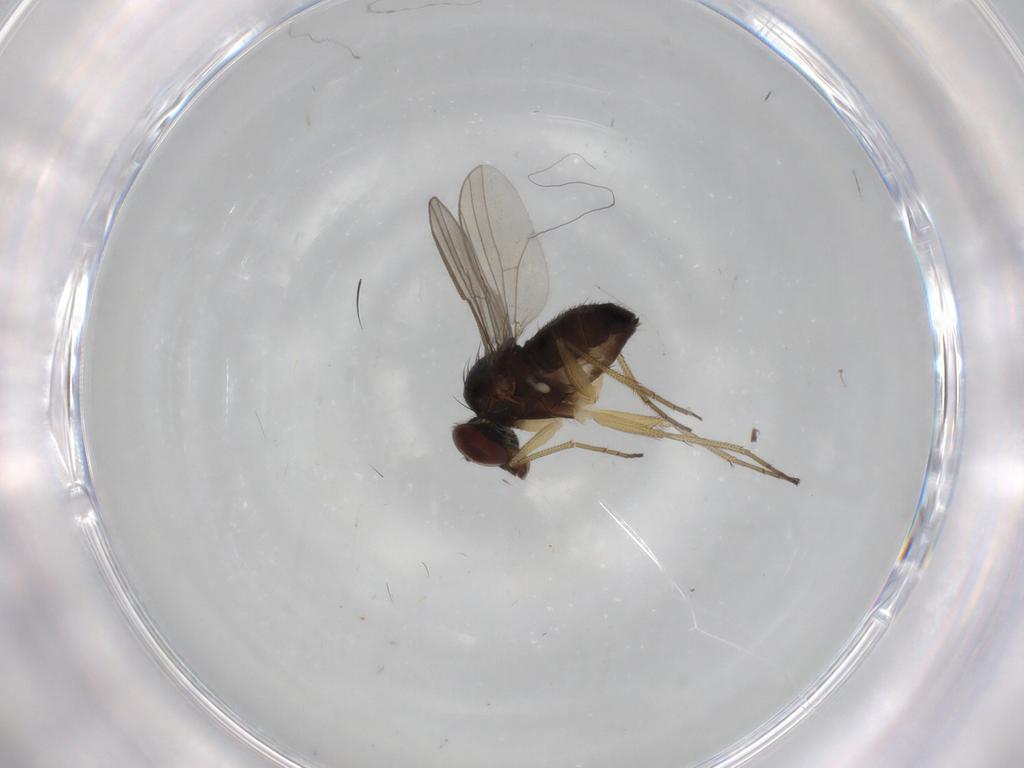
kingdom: Animalia
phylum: Arthropoda
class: Insecta
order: Diptera
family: Dolichopodidae
